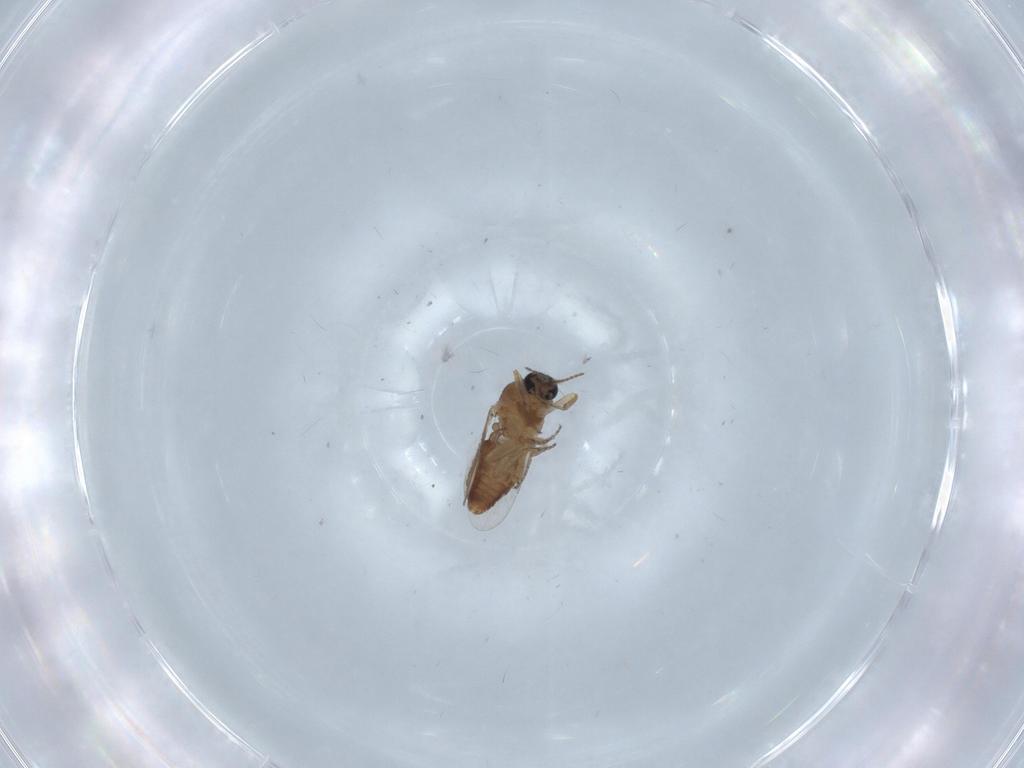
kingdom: Animalia
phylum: Arthropoda
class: Insecta
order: Diptera
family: Ceratopogonidae
